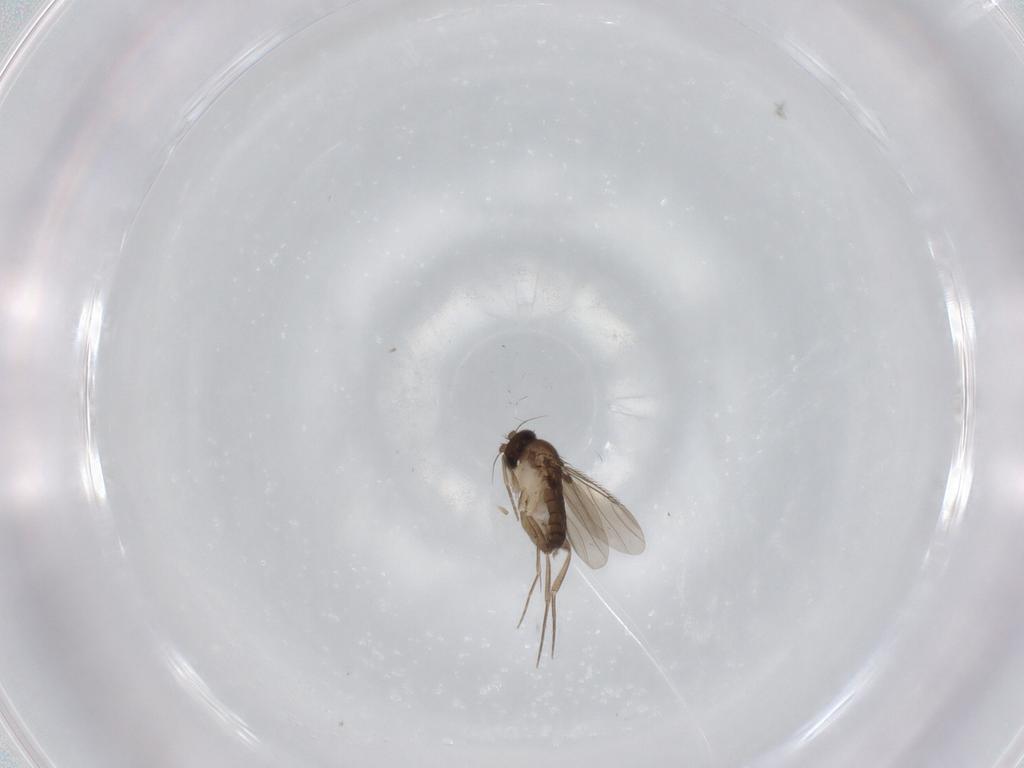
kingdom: Animalia
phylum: Arthropoda
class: Insecta
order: Diptera
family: Phoridae
